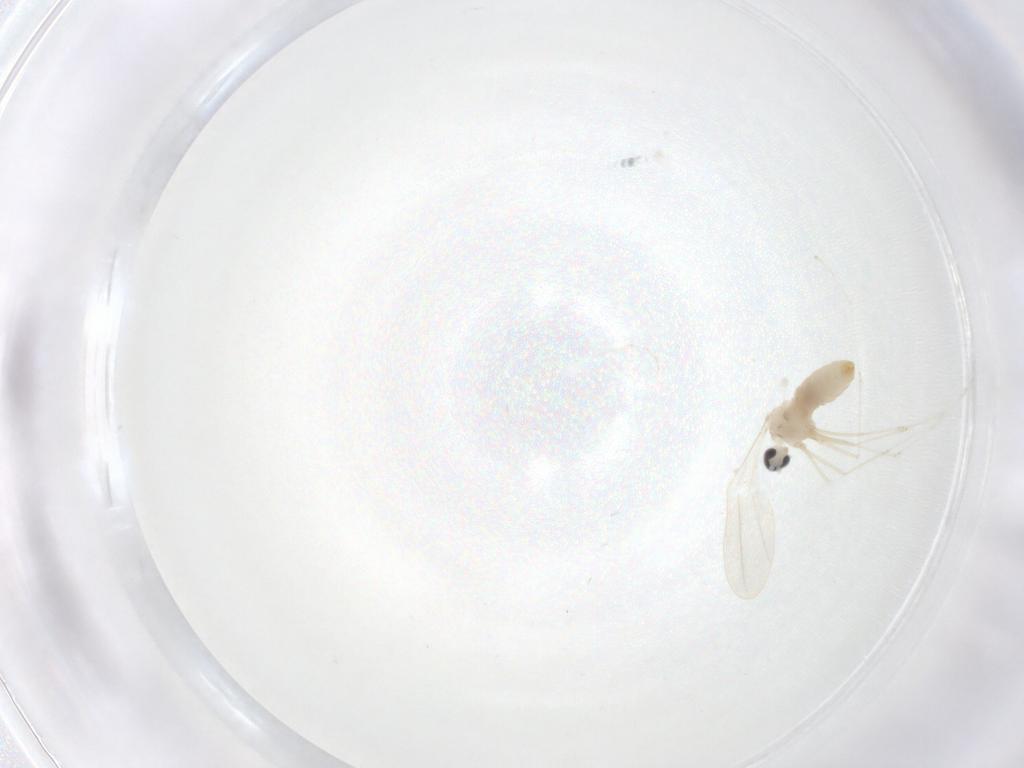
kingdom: Animalia
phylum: Arthropoda
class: Insecta
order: Diptera
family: Cecidomyiidae
